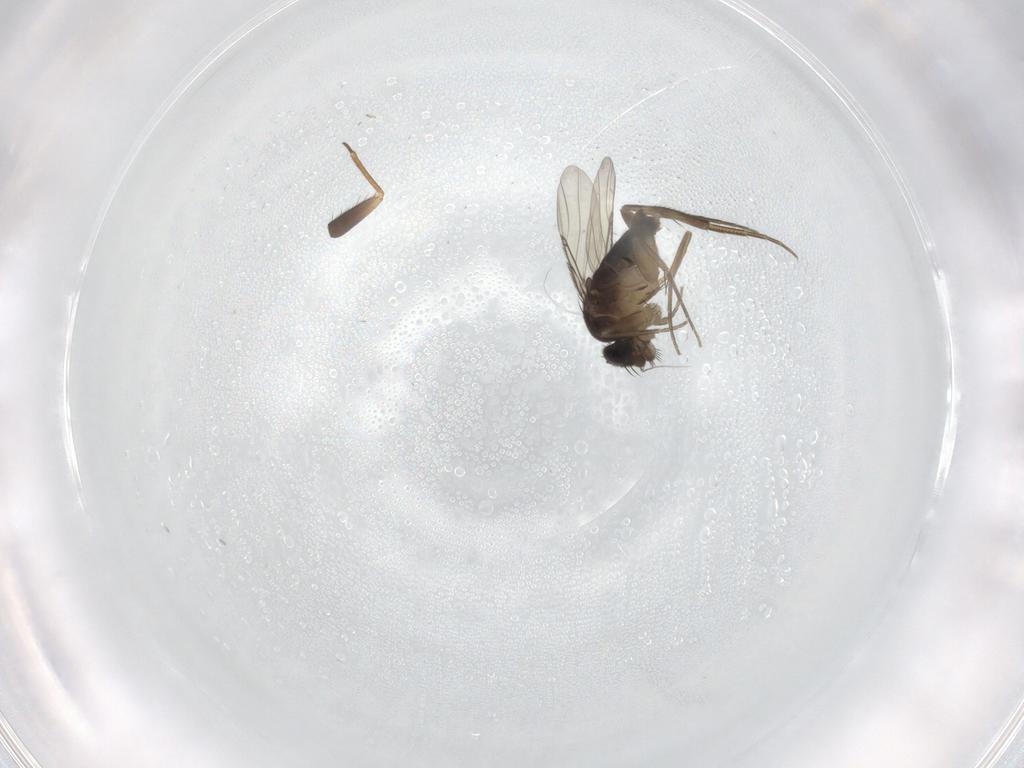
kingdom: Animalia
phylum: Arthropoda
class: Insecta
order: Diptera
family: Phoridae
